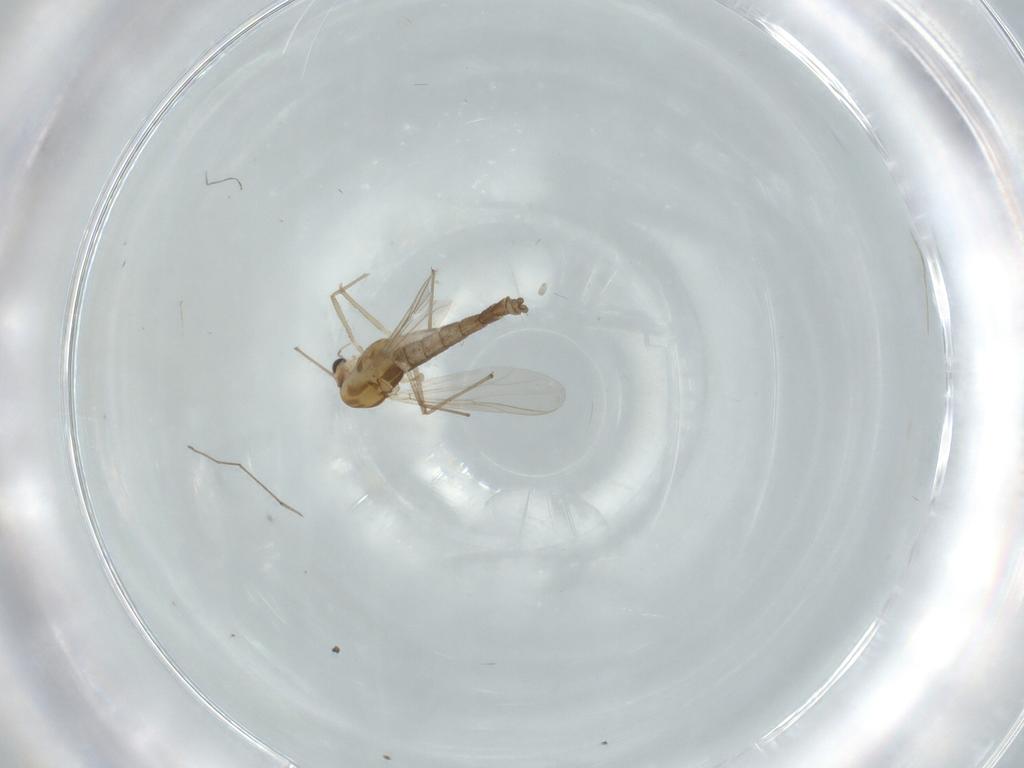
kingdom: Animalia
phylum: Arthropoda
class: Insecta
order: Diptera
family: Chironomidae
